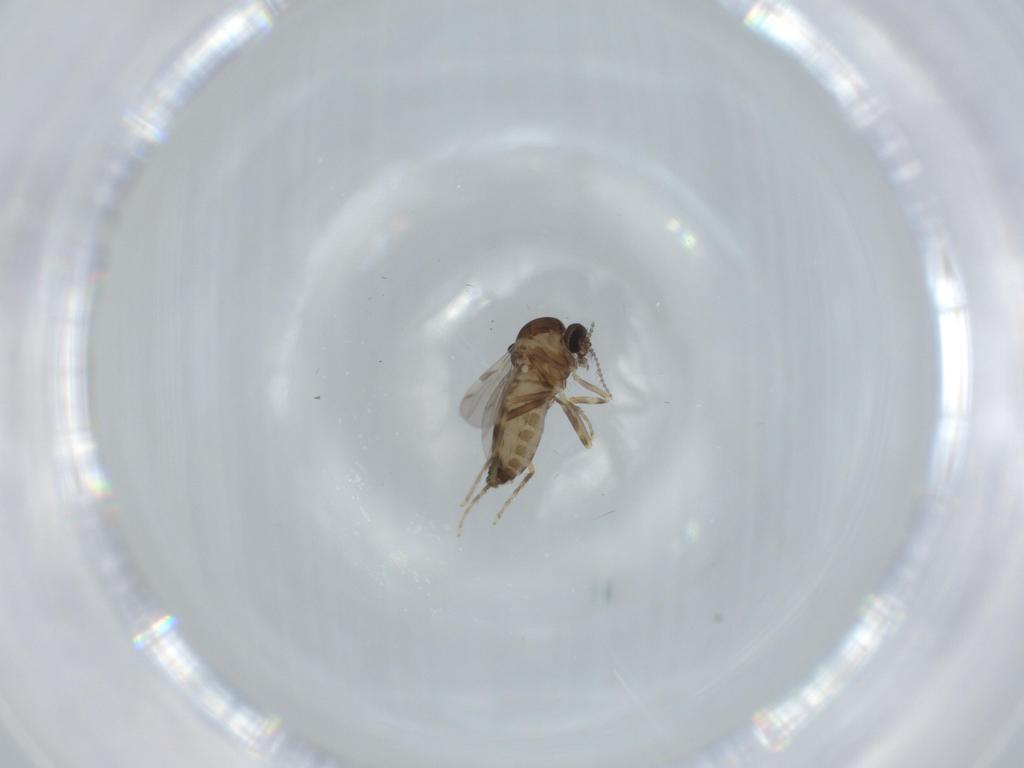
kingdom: Animalia
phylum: Arthropoda
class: Insecta
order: Diptera
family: Ceratopogonidae
